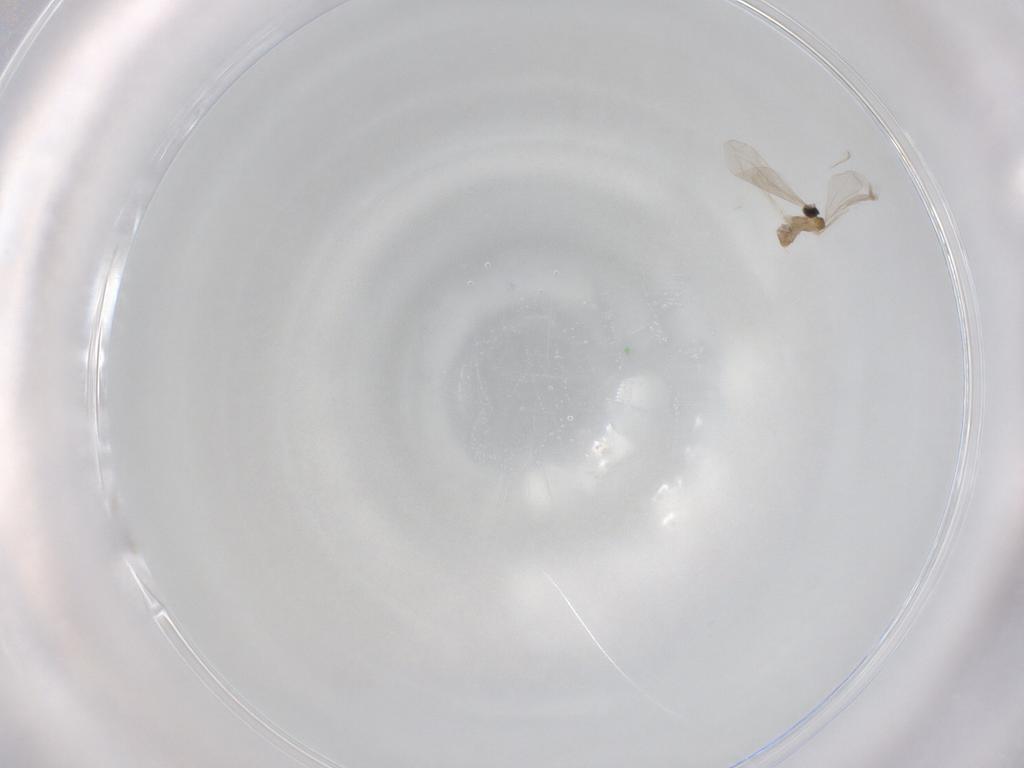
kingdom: Animalia
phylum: Arthropoda
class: Insecta
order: Diptera
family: Cecidomyiidae
